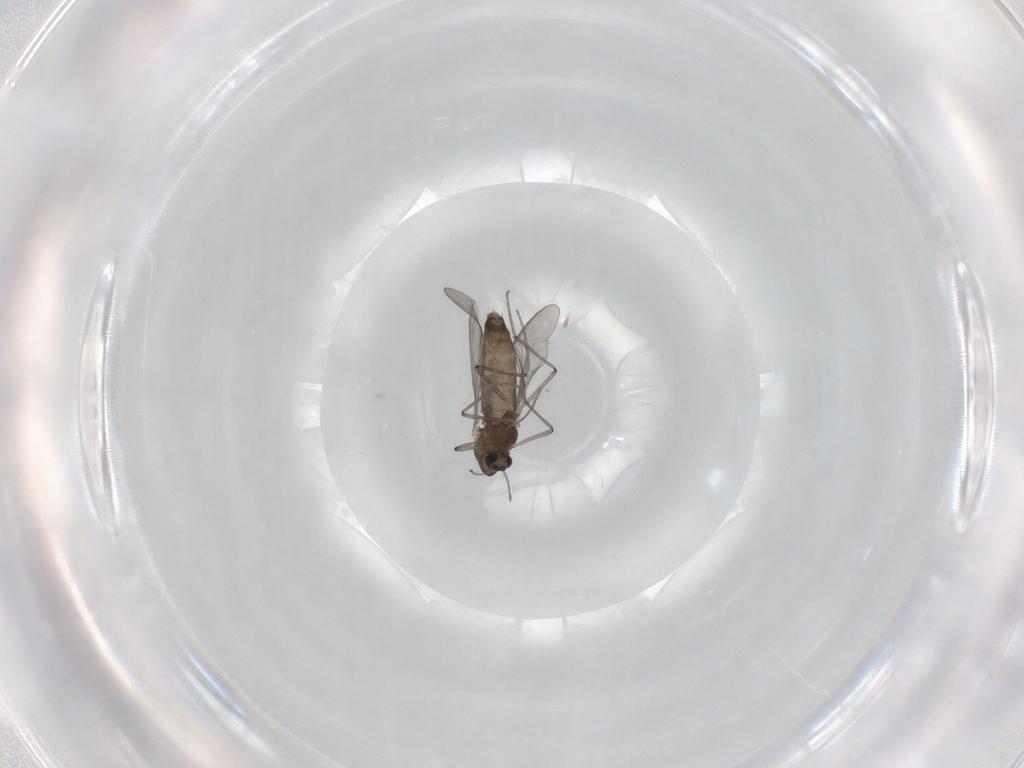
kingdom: Animalia
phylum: Arthropoda
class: Insecta
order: Diptera
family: Chironomidae
